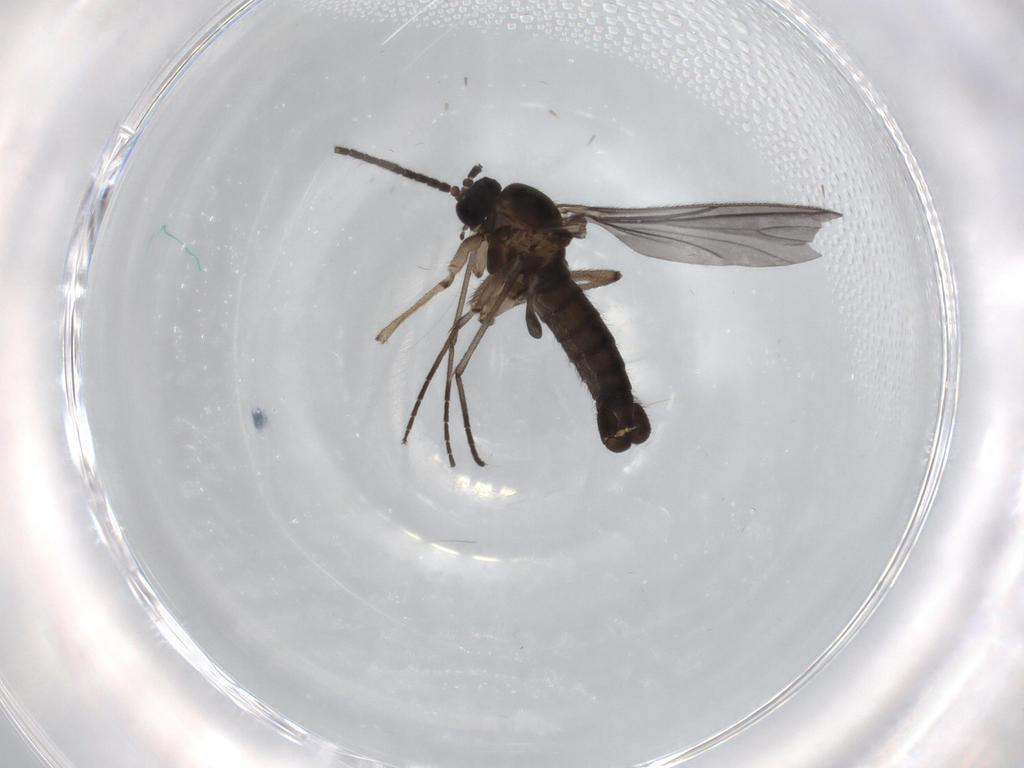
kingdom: Animalia
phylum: Arthropoda
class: Insecta
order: Diptera
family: Sciaridae
